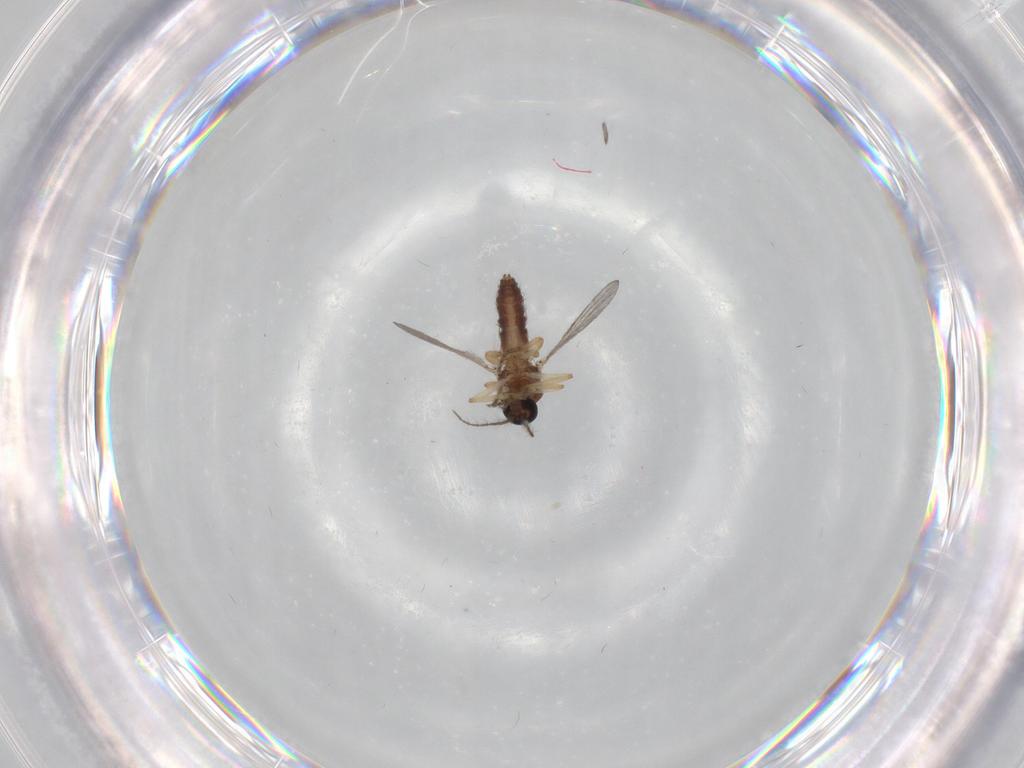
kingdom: Animalia
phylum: Arthropoda
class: Insecta
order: Diptera
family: Ceratopogonidae
